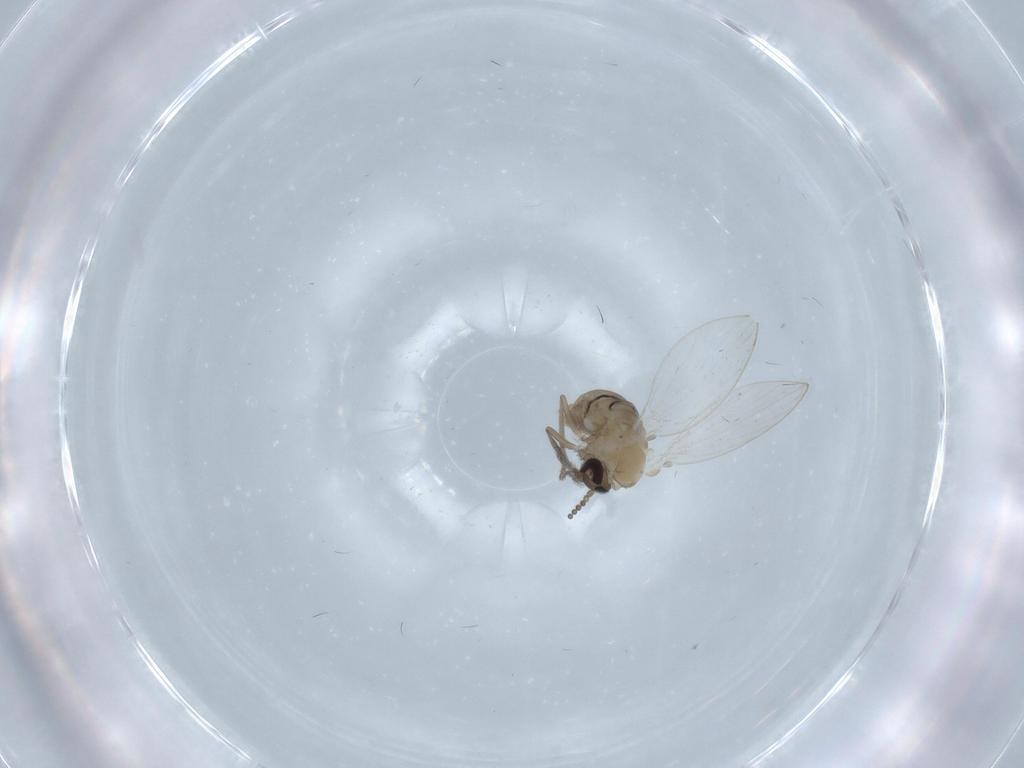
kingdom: Animalia
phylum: Arthropoda
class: Insecta
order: Diptera
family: Psychodidae
